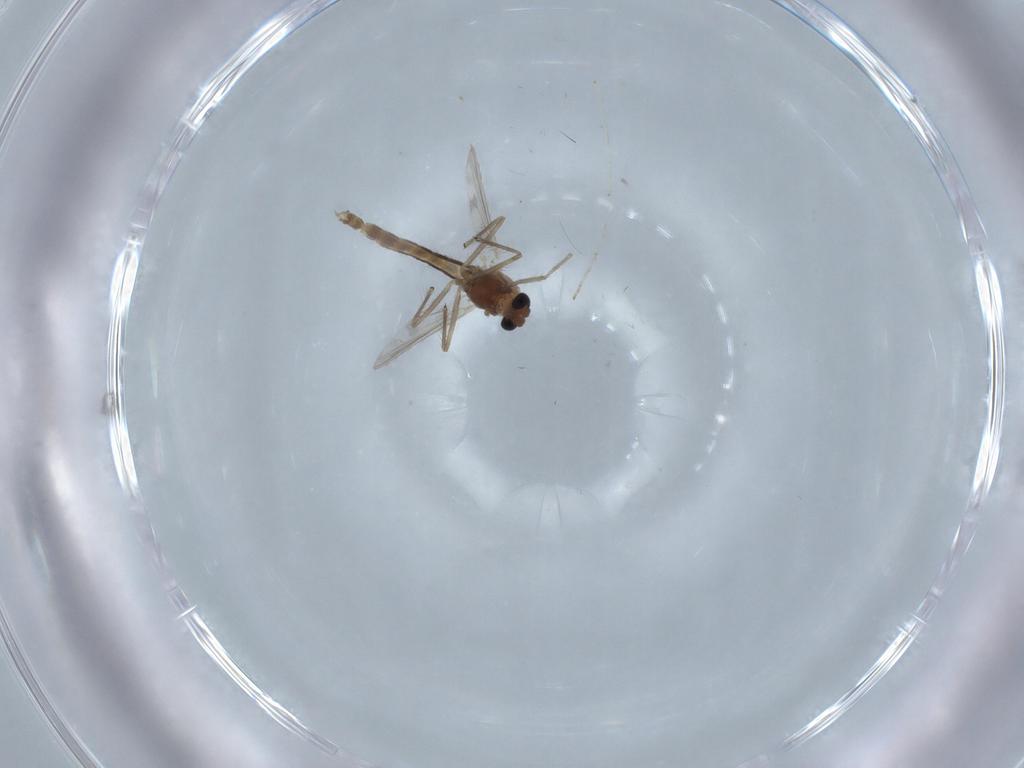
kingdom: Animalia
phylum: Arthropoda
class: Insecta
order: Diptera
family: Chironomidae
